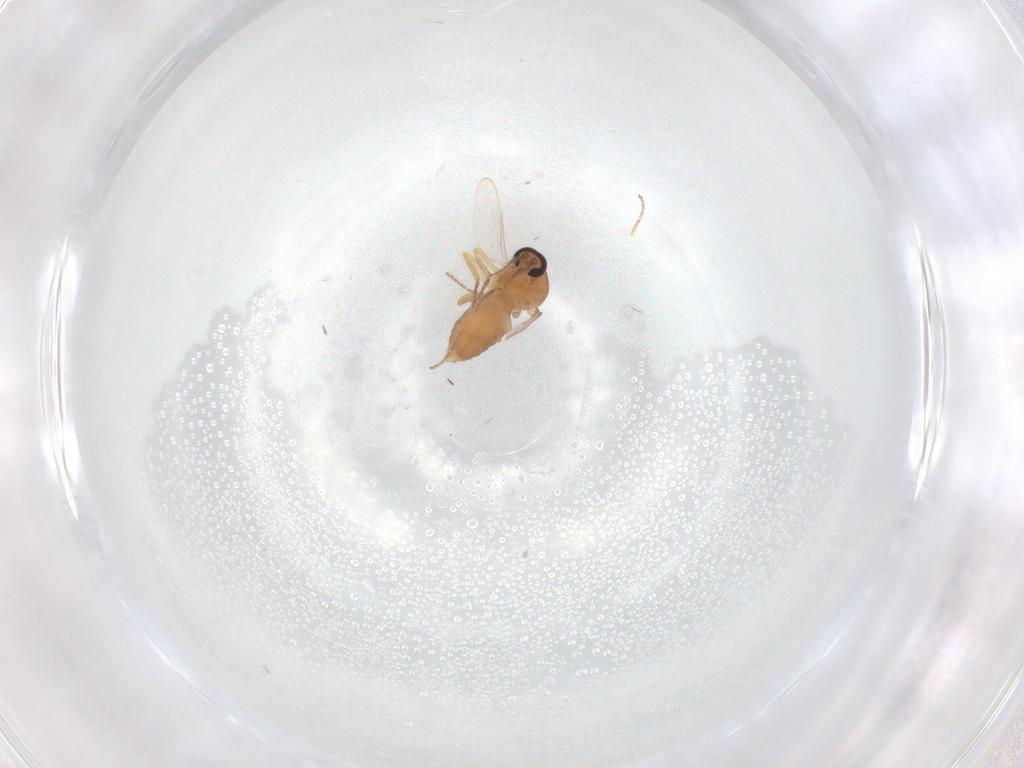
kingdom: Animalia
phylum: Arthropoda
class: Insecta
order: Diptera
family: Ceratopogonidae
